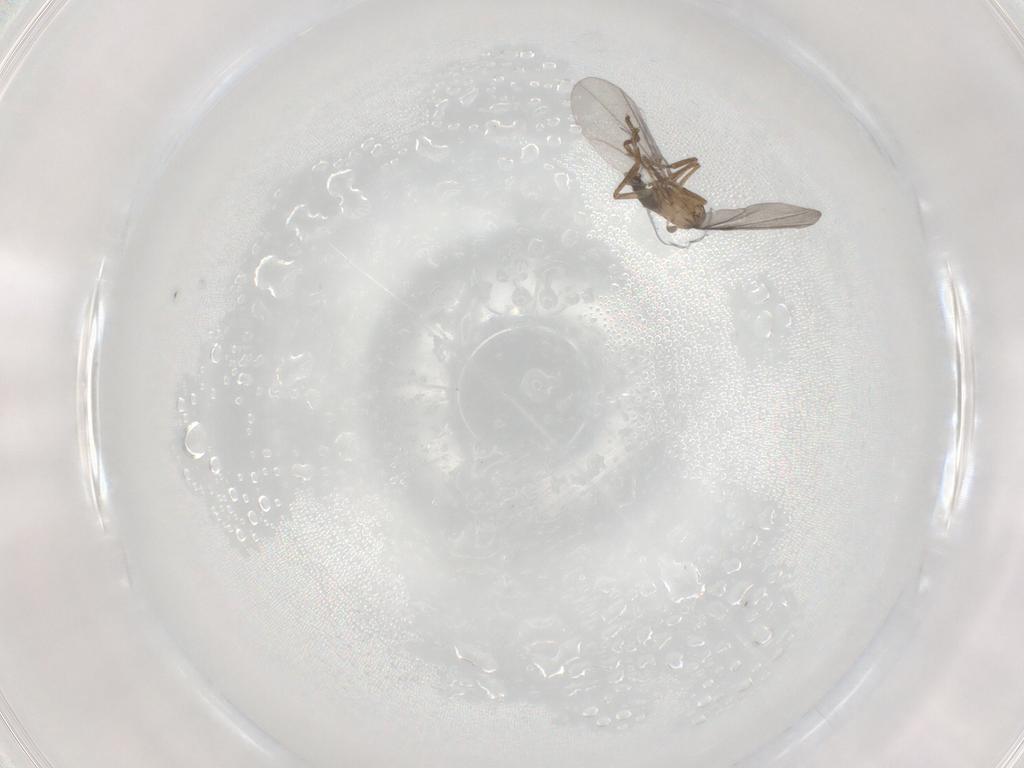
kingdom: Animalia
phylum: Arthropoda
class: Insecta
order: Diptera
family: Phoridae
